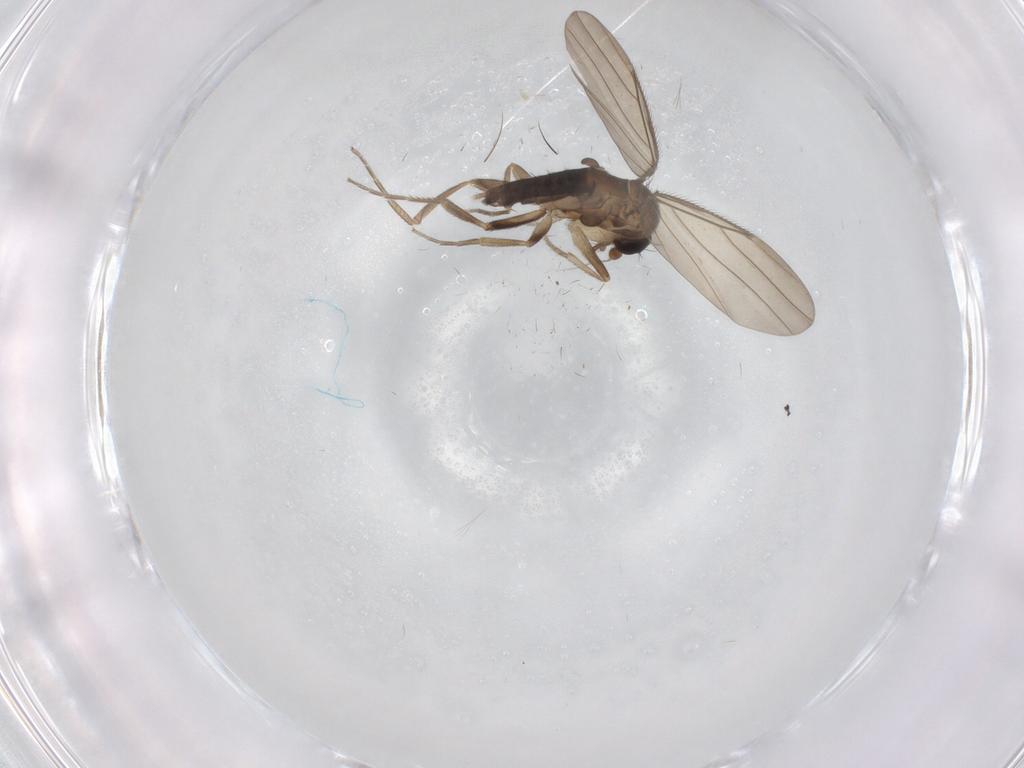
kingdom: Animalia
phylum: Arthropoda
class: Insecta
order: Diptera
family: Phoridae
